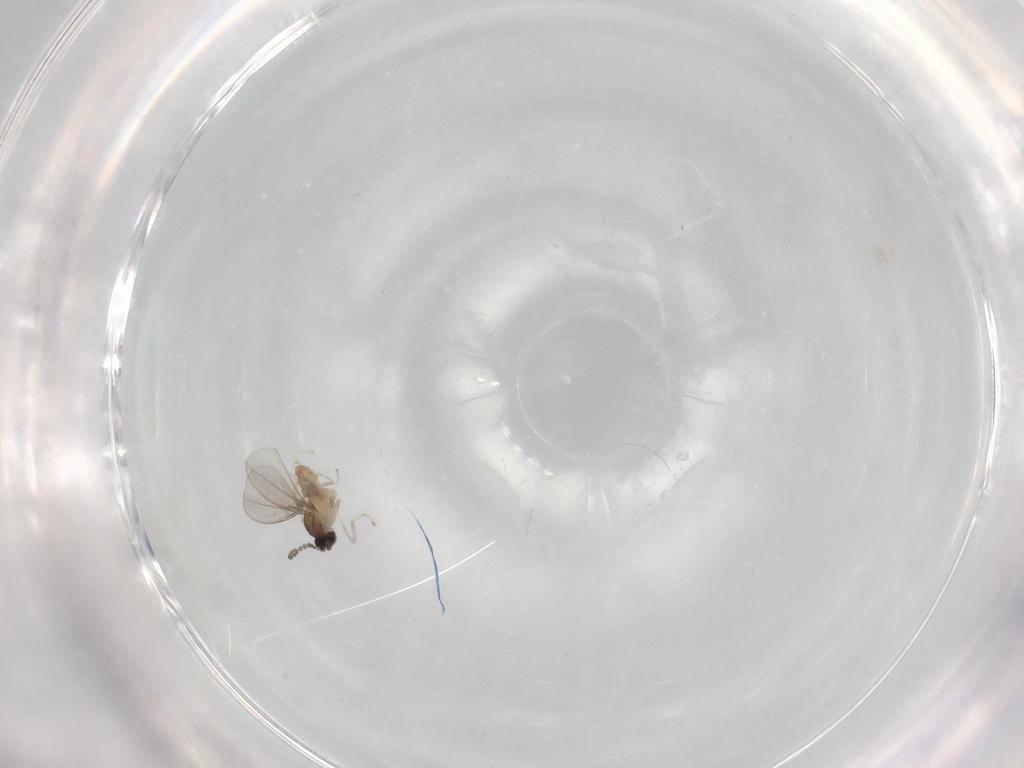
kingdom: Animalia
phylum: Arthropoda
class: Insecta
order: Diptera
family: Cecidomyiidae
